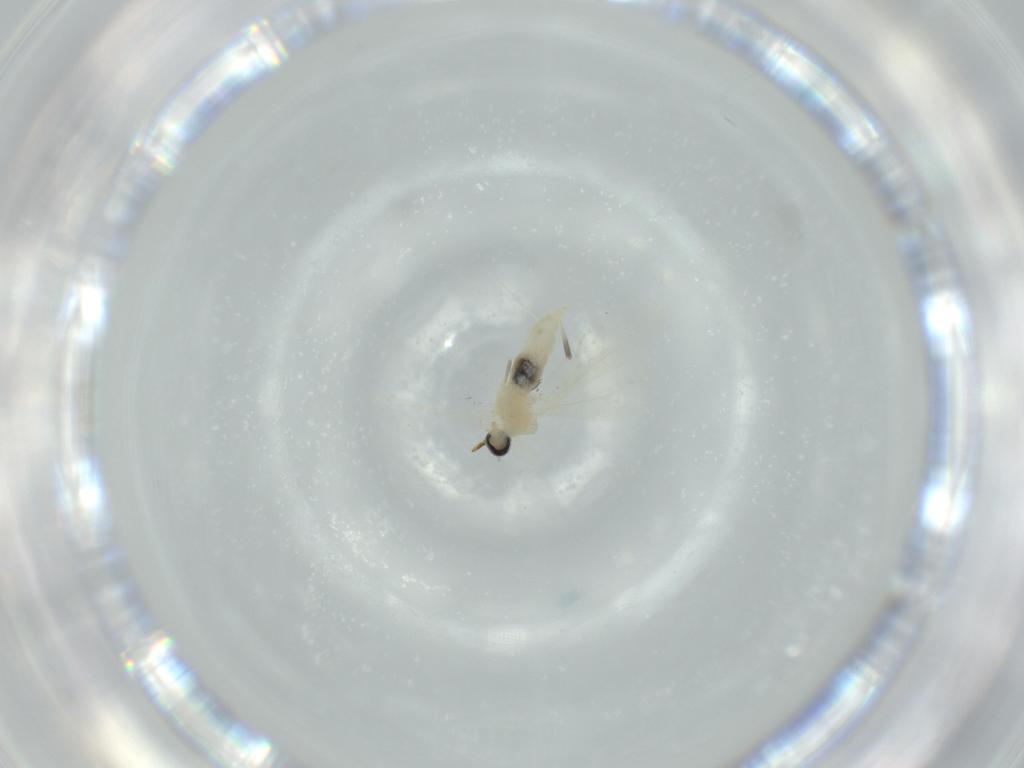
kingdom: Animalia
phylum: Arthropoda
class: Insecta
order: Diptera
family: Cecidomyiidae
